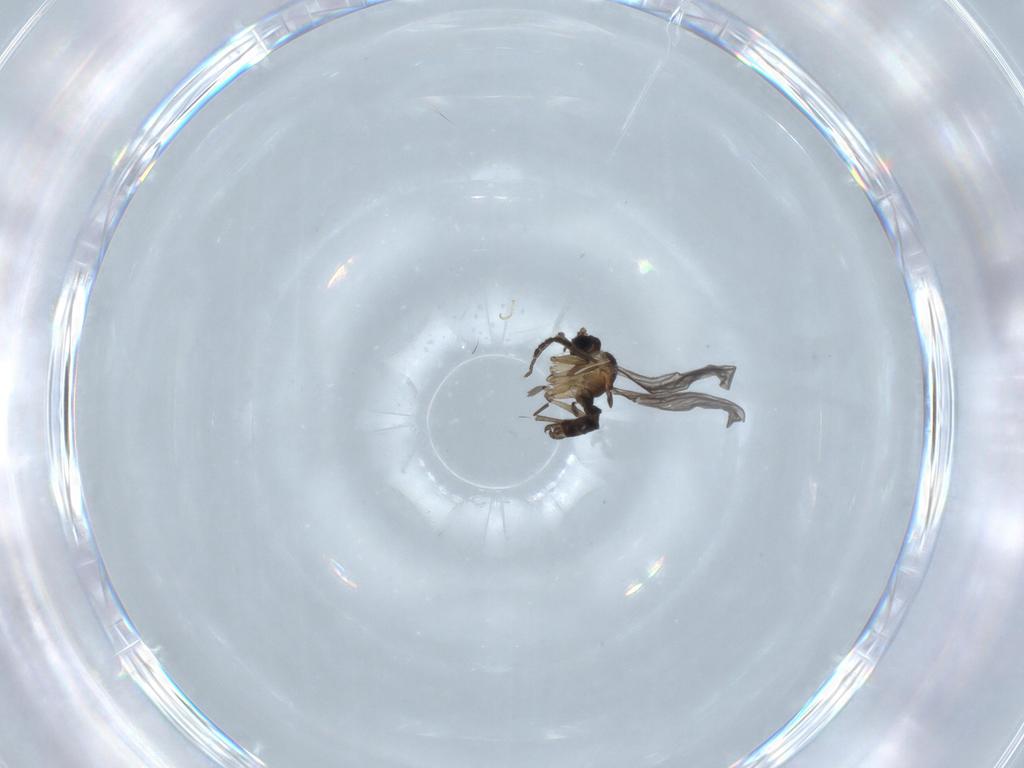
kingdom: Animalia
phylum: Arthropoda
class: Insecta
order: Diptera
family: Sciaridae
